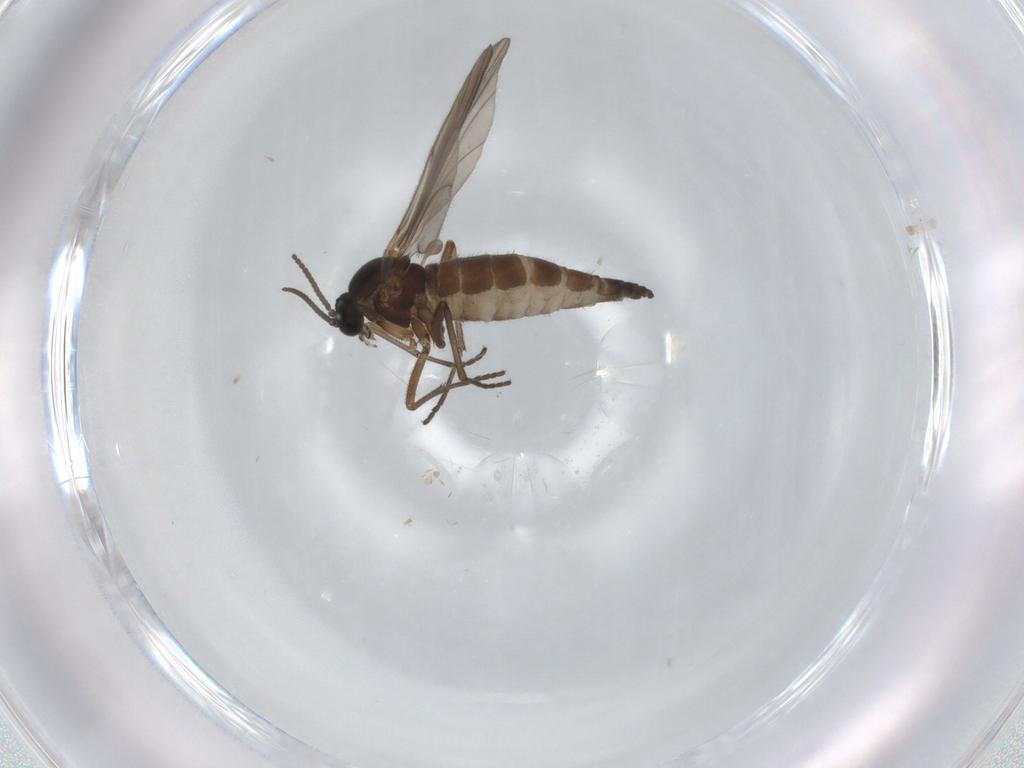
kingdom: Animalia
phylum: Arthropoda
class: Insecta
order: Diptera
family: Sciaridae
